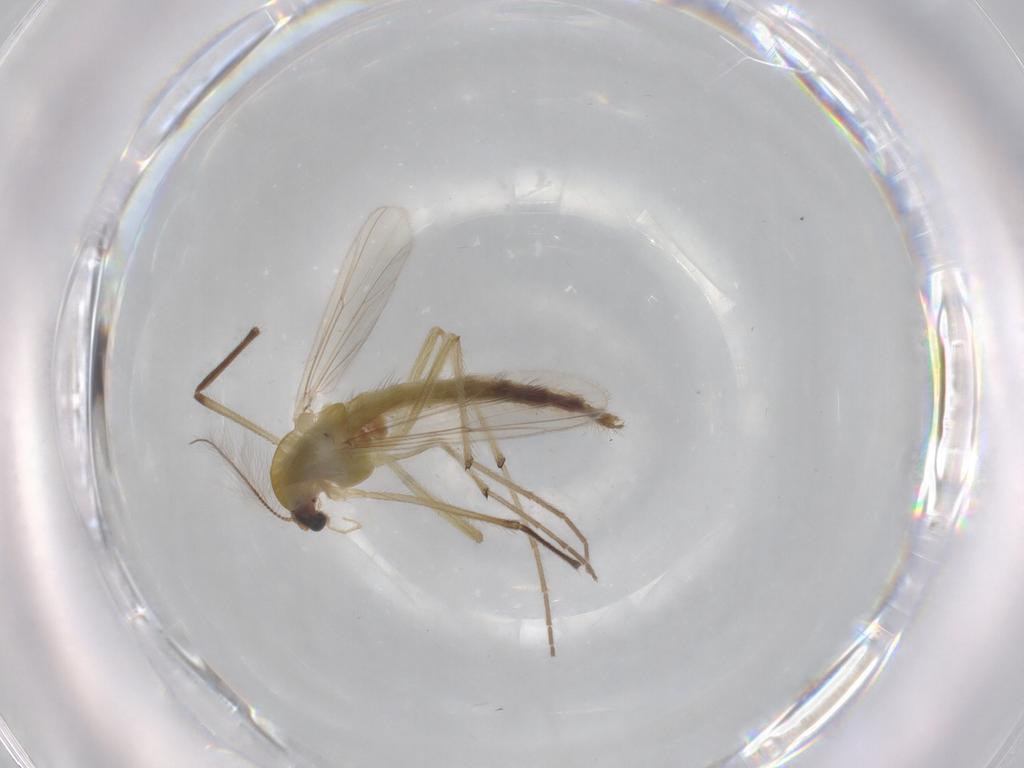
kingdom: Animalia
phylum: Arthropoda
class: Insecta
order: Diptera
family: Chironomidae
